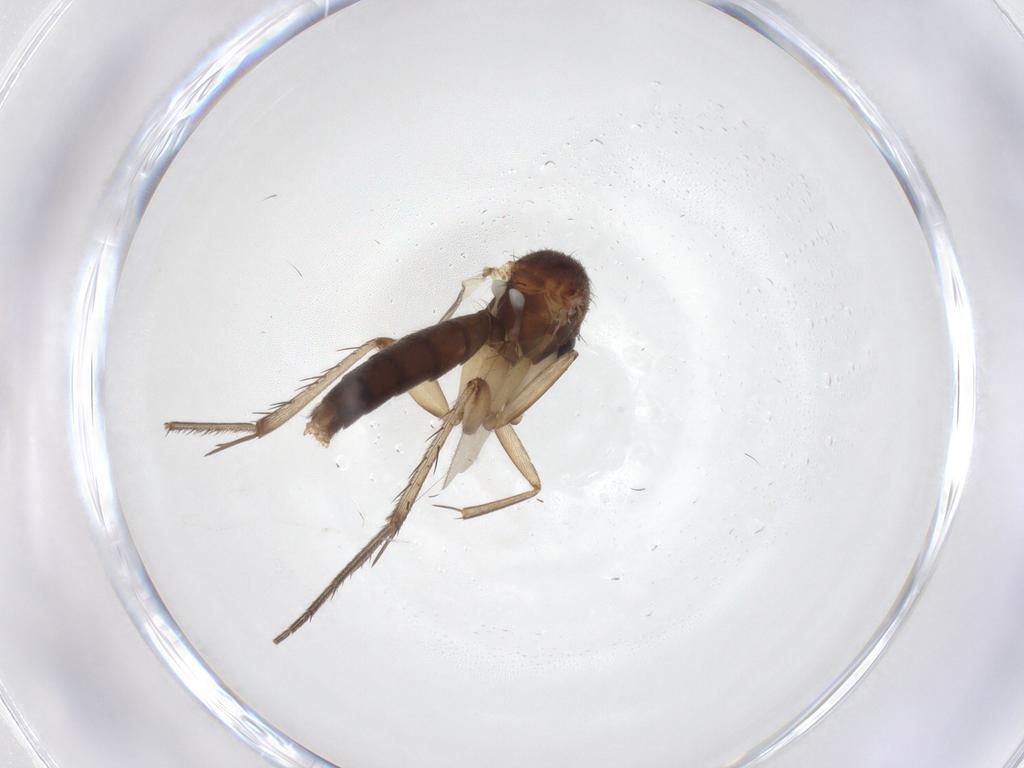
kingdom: Animalia
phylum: Arthropoda
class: Insecta
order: Diptera
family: Mycetophilidae
